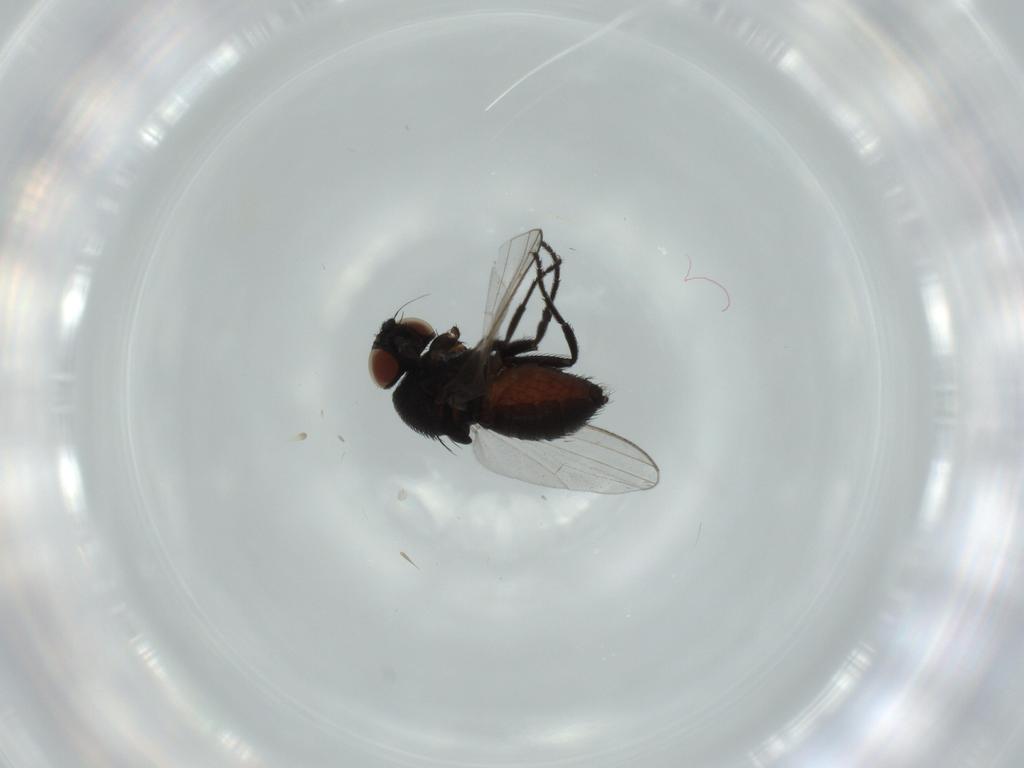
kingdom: Animalia
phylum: Arthropoda
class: Insecta
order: Diptera
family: Milichiidae
